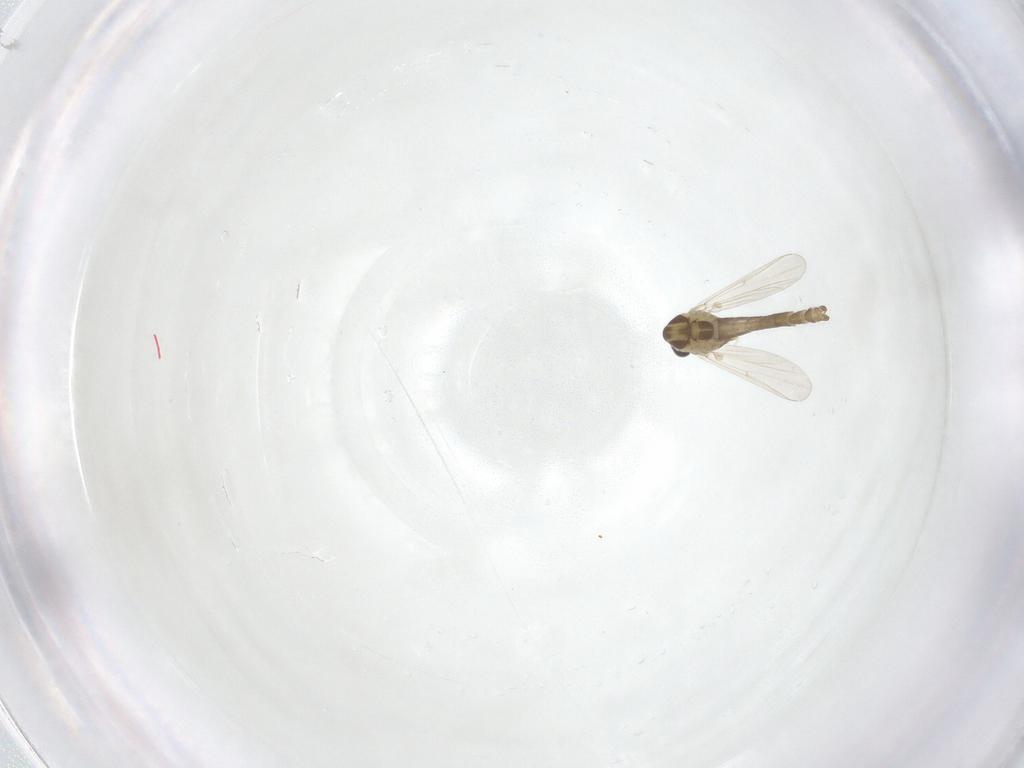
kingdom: Animalia
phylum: Arthropoda
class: Insecta
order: Diptera
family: Chironomidae
